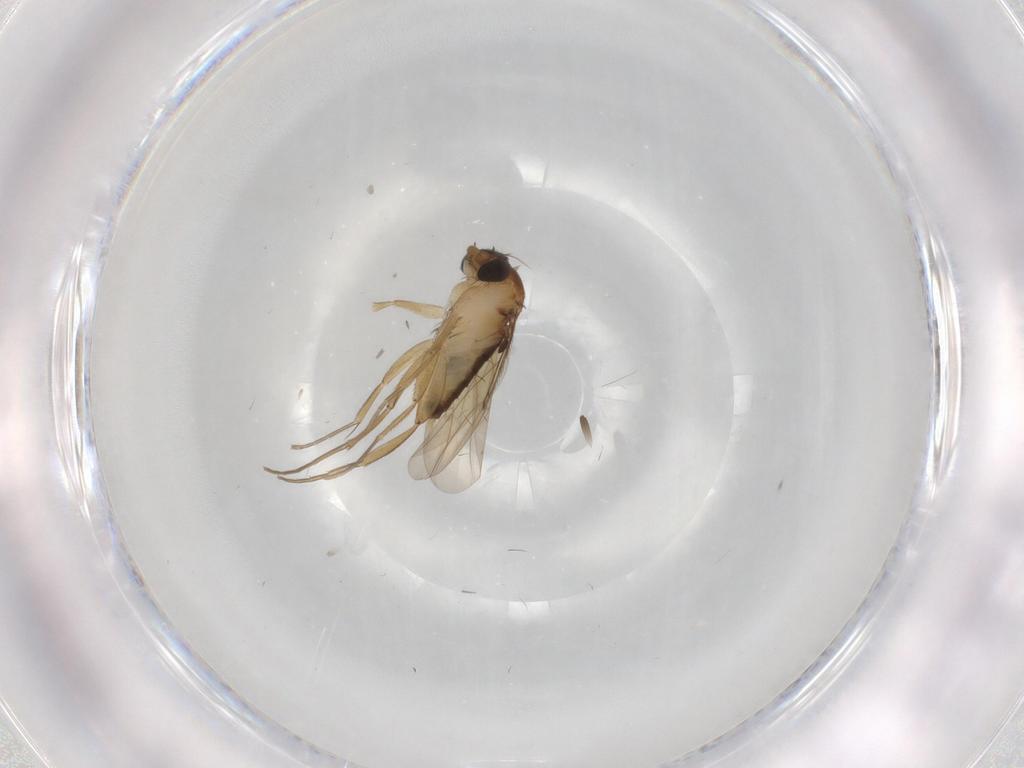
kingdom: Animalia
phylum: Arthropoda
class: Insecta
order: Diptera
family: Phoridae
